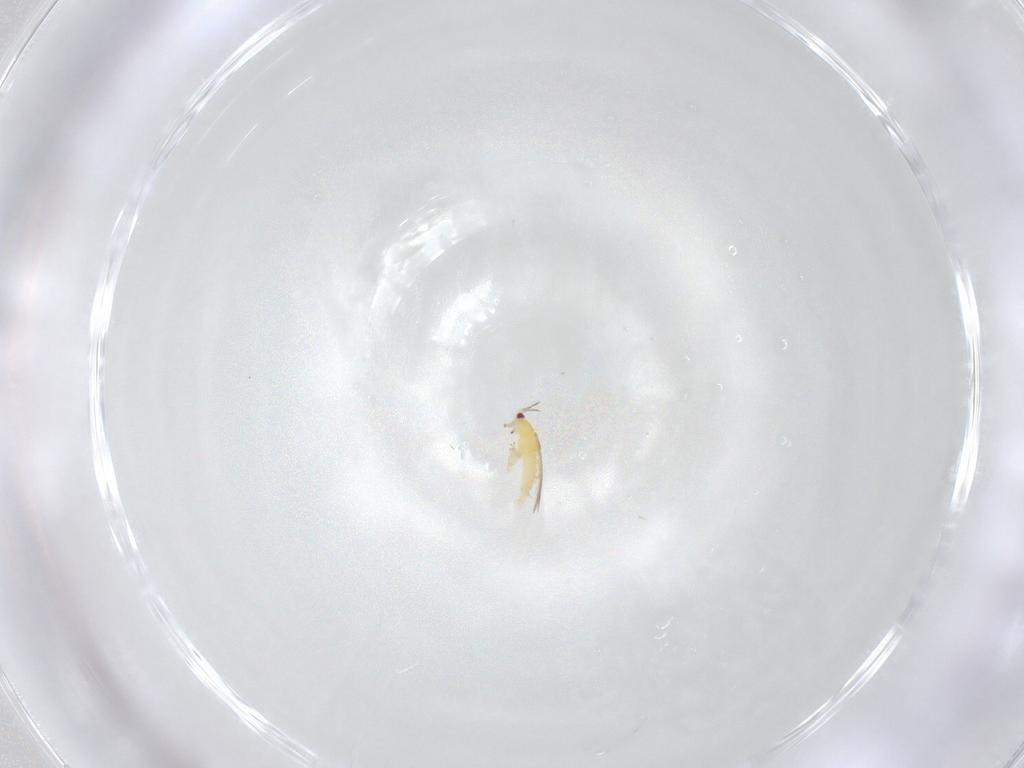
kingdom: Animalia
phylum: Arthropoda
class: Insecta
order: Thysanoptera
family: Thripidae
